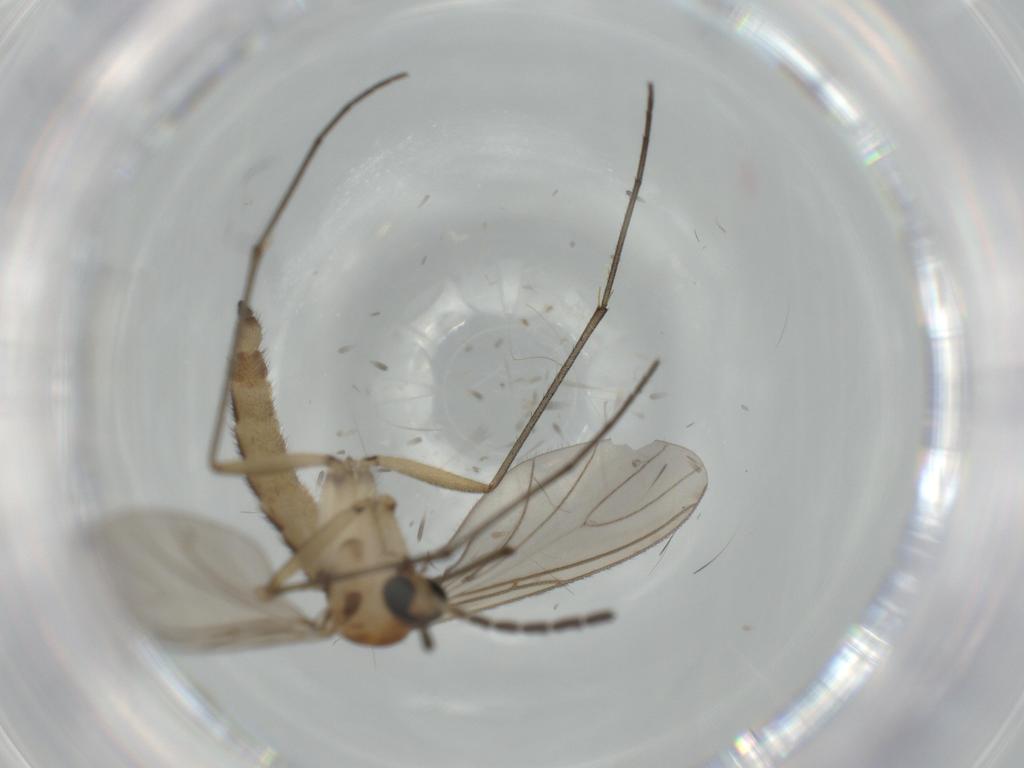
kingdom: Animalia
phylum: Arthropoda
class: Insecta
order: Diptera
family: Sciaridae
